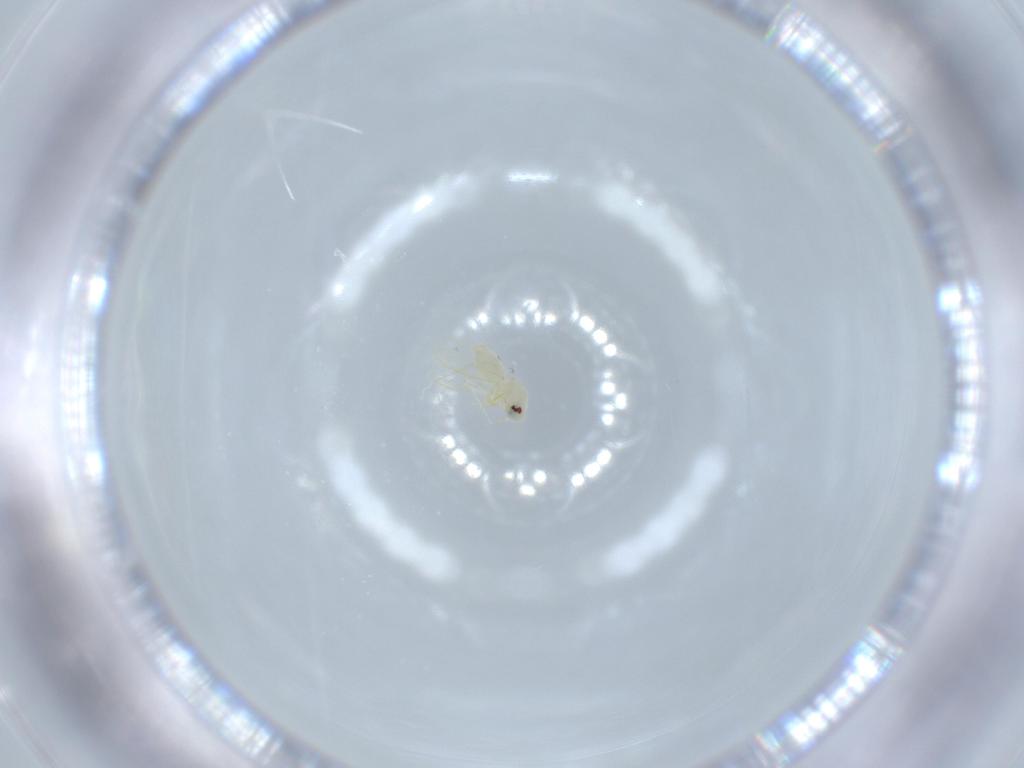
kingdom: Animalia
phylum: Arthropoda
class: Insecta
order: Hemiptera
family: Aleyrodidae
